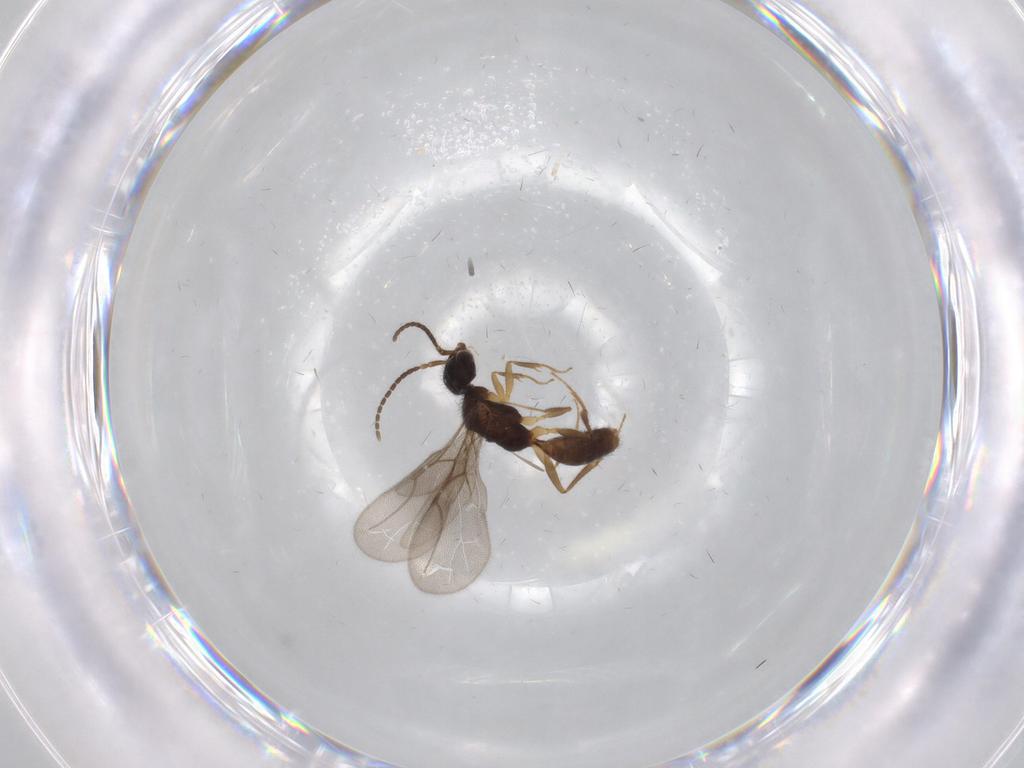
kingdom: Animalia
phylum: Arthropoda
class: Insecta
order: Hymenoptera
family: Bethylidae
